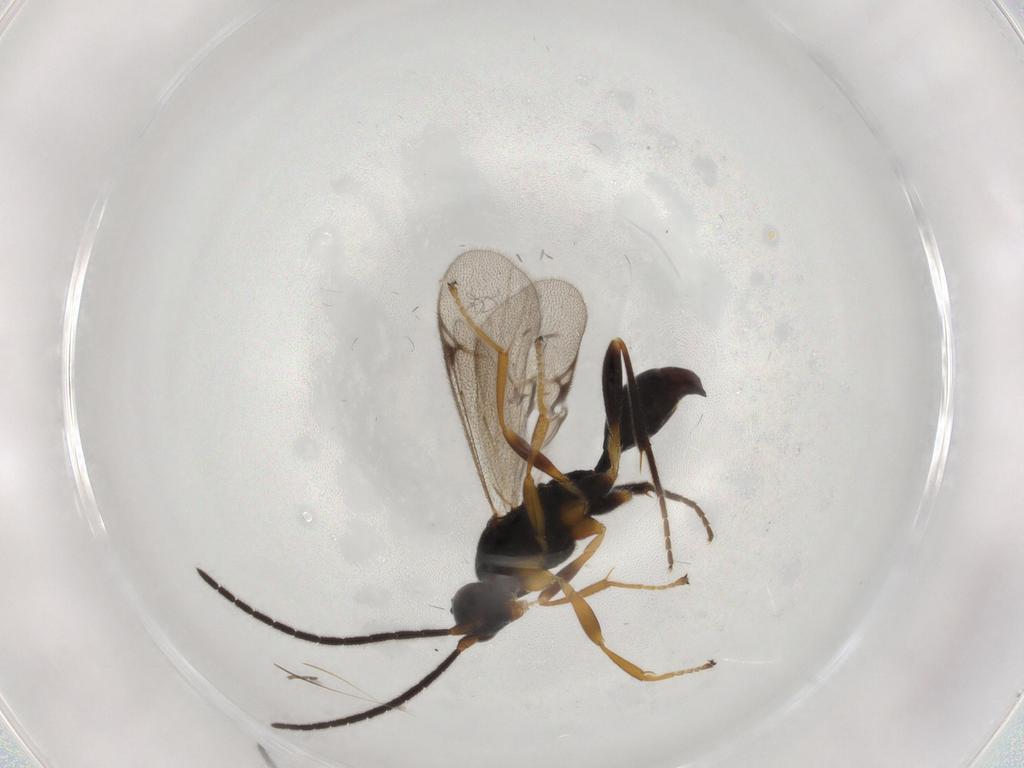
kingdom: Animalia
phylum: Arthropoda
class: Insecta
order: Hymenoptera
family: Proctotrupidae
